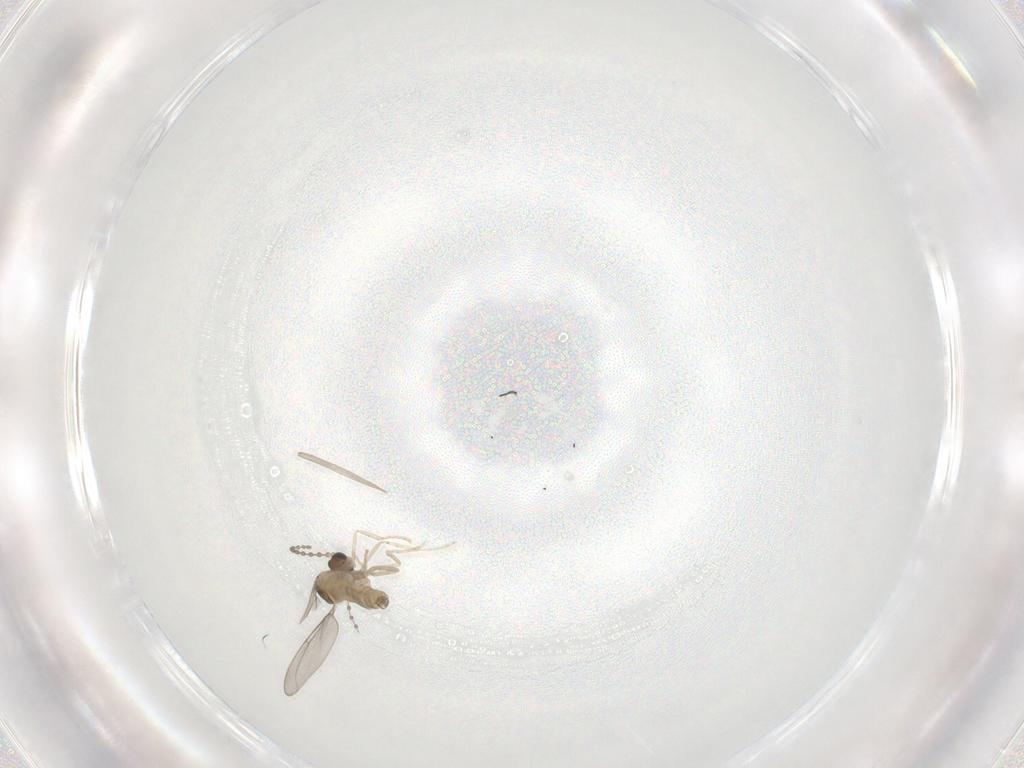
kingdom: Animalia
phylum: Arthropoda
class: Insecta
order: Diptera
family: Cecidomyiidae
